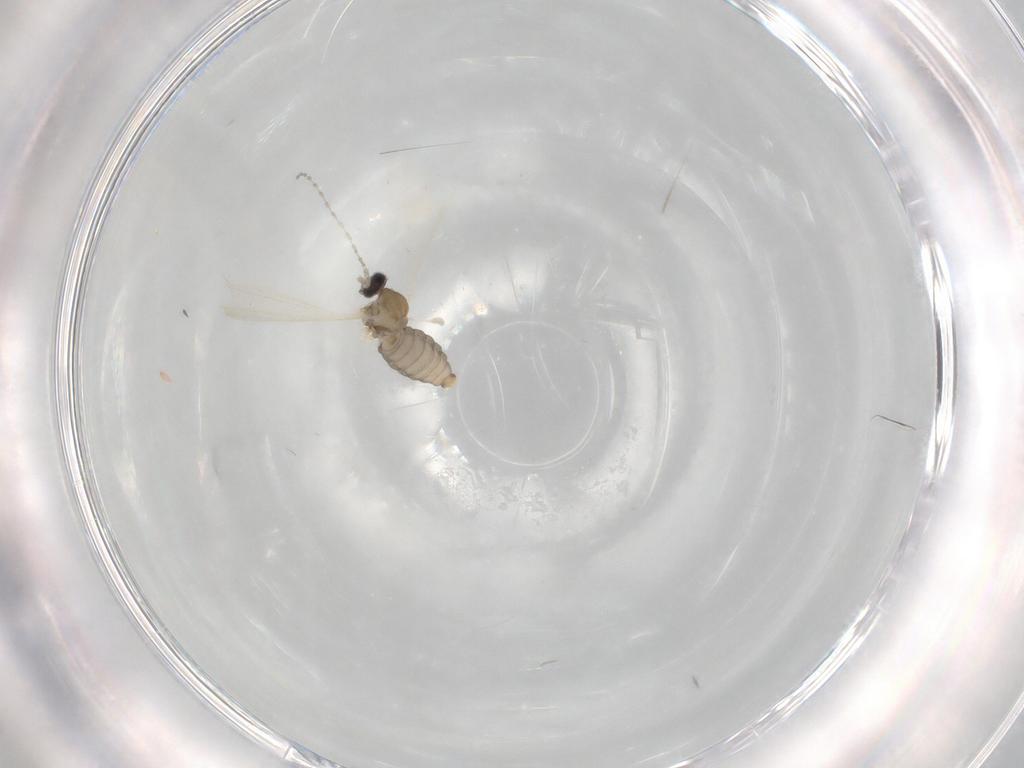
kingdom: Animalia
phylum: Arthropoda
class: Insecta
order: Diptera
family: Cecidomyiidae
